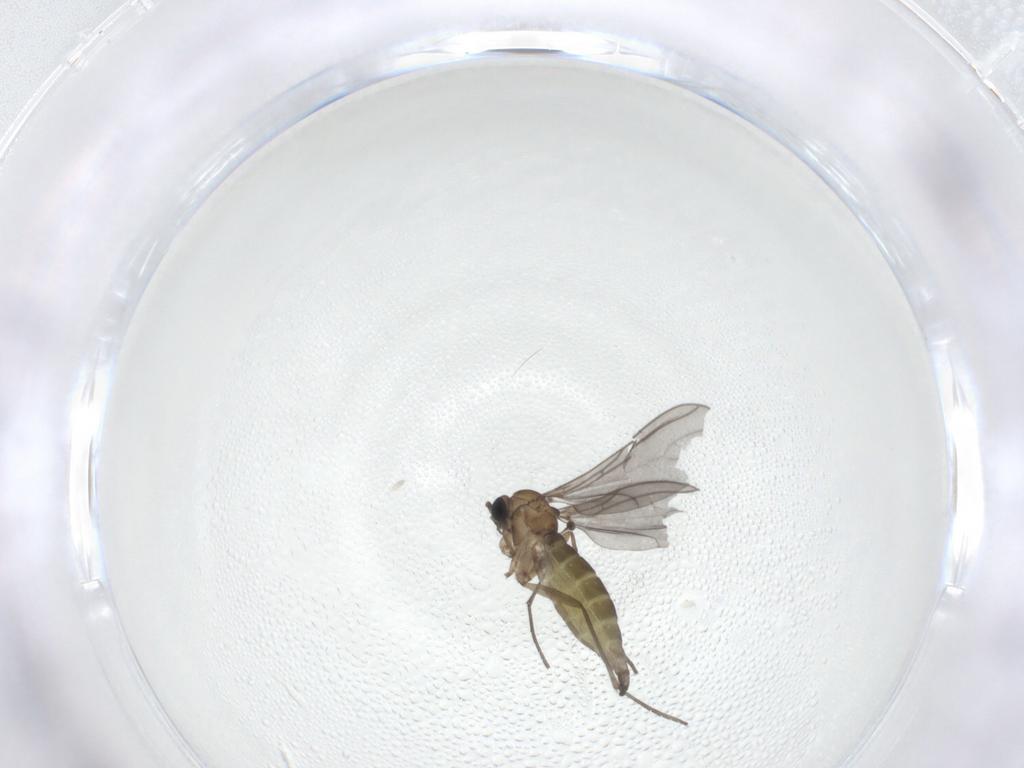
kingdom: Animalia
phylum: Arthropoda
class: Insecta
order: Diptera
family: Sciaridae
